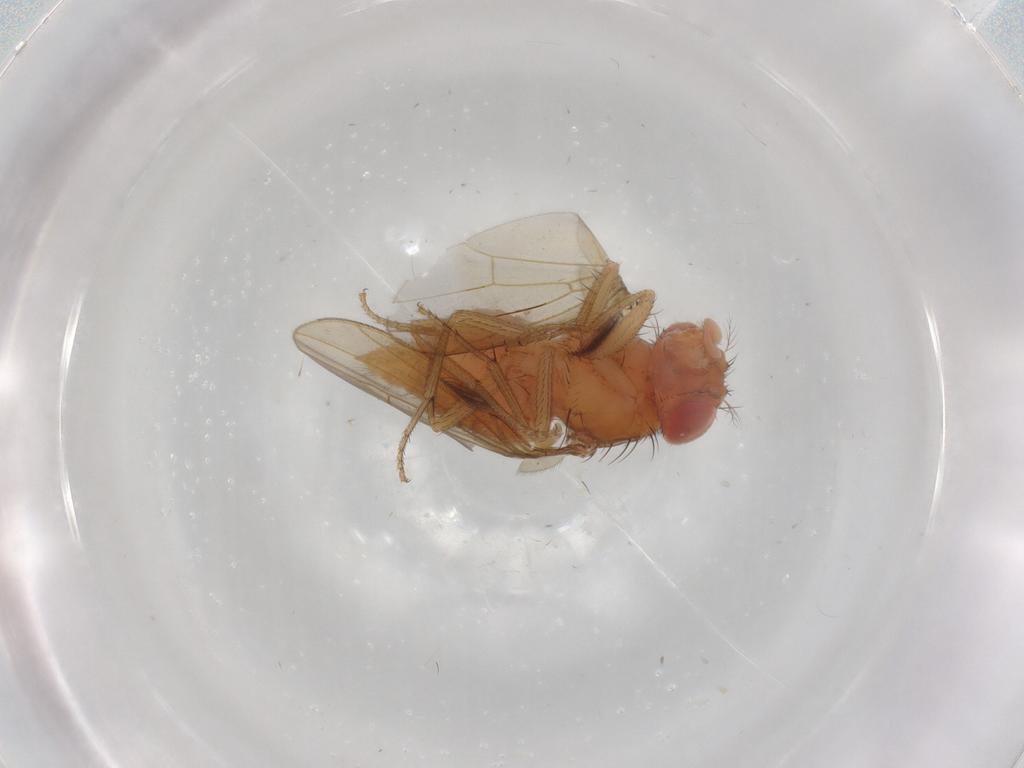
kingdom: Animalia
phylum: Arthropoda
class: Insecta
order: Diptera
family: Drosophilidae
